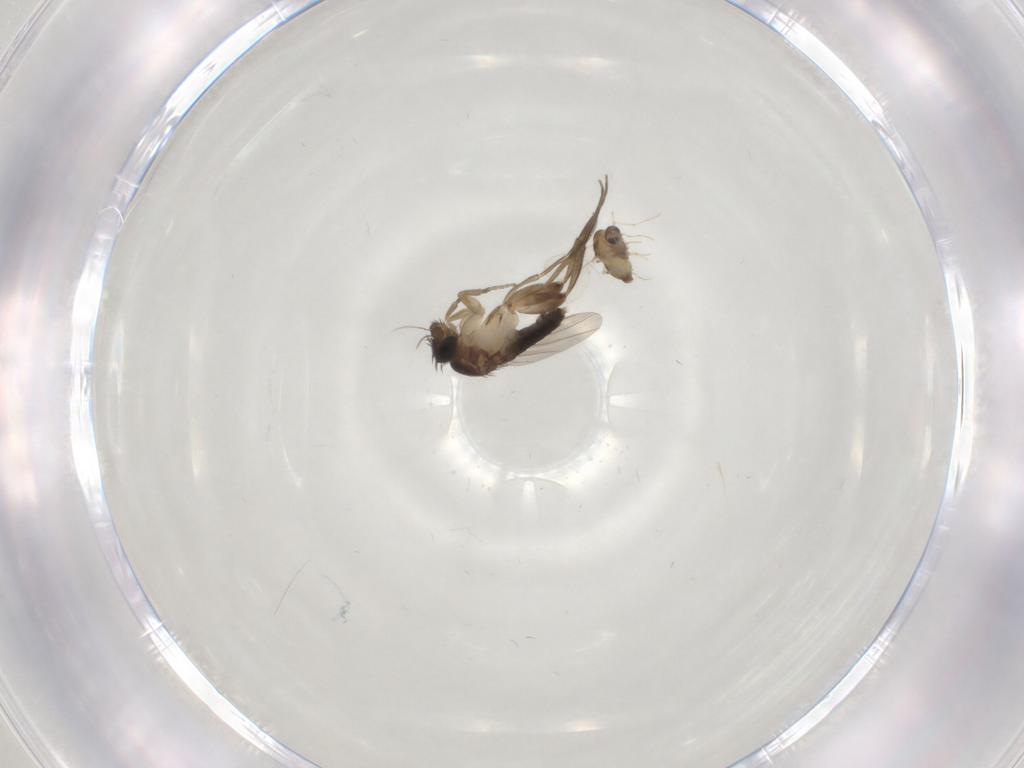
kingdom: Animalia
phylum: Arthropoda
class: Insecta
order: Diptera
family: Phoridae
